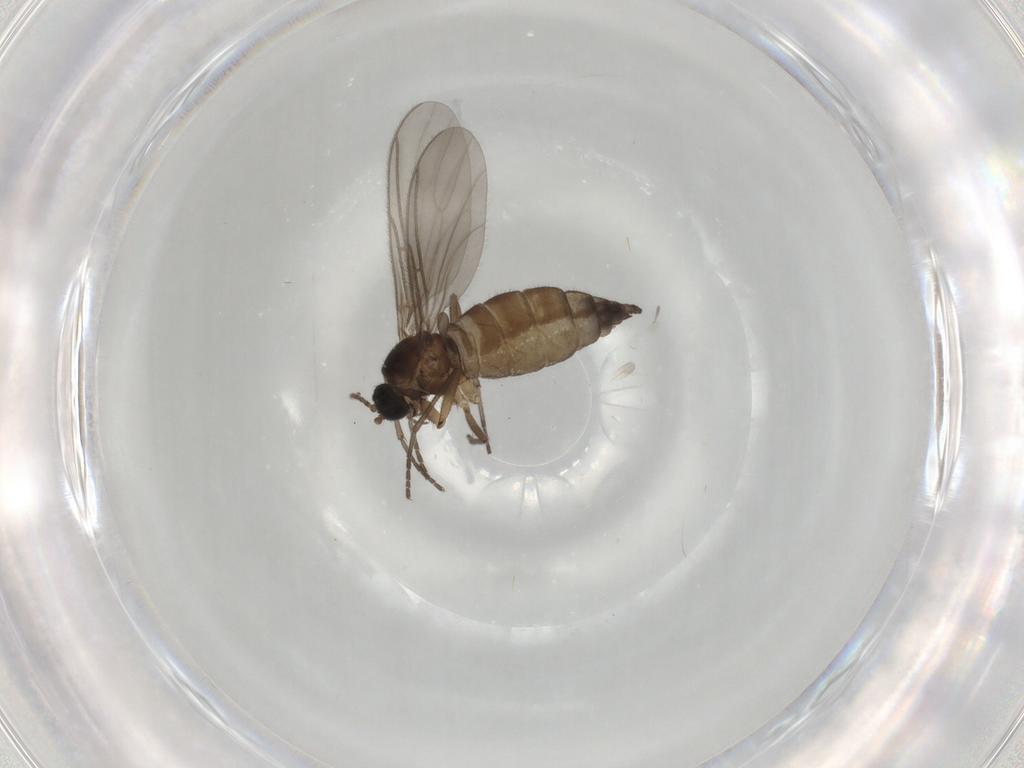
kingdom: Animalia
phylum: Arthropoda
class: Insecta
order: Diptera
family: Sciaridae
